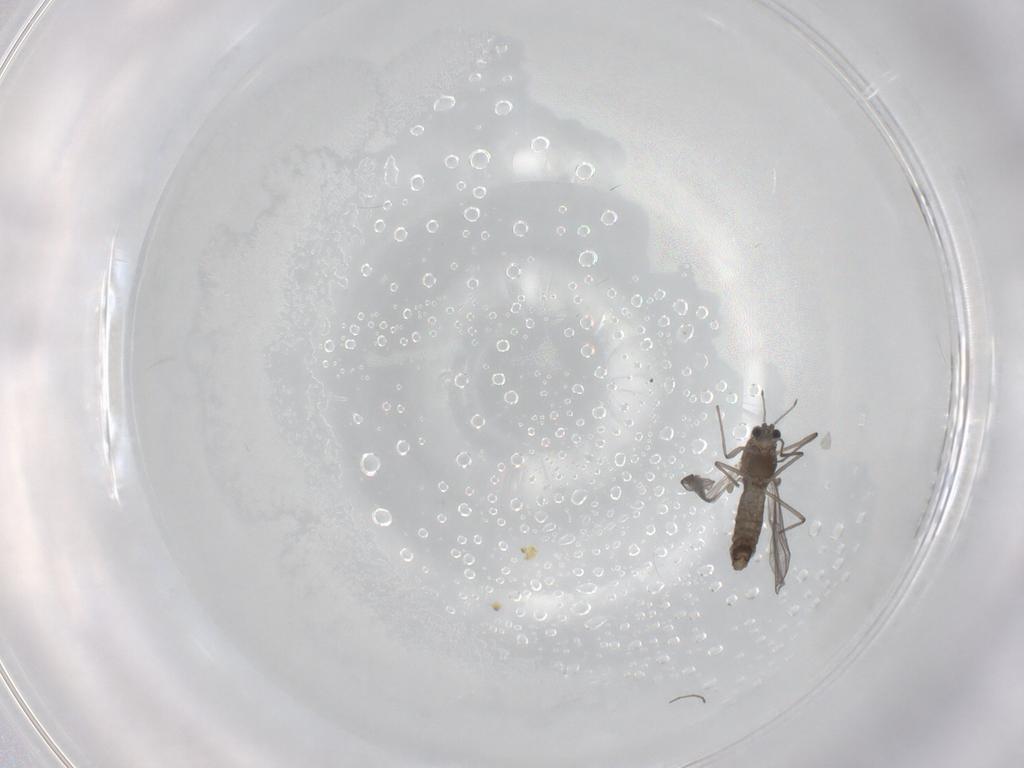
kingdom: Animalia
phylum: Arthropoda
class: Insecta
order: Diptera
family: Chironomidae
